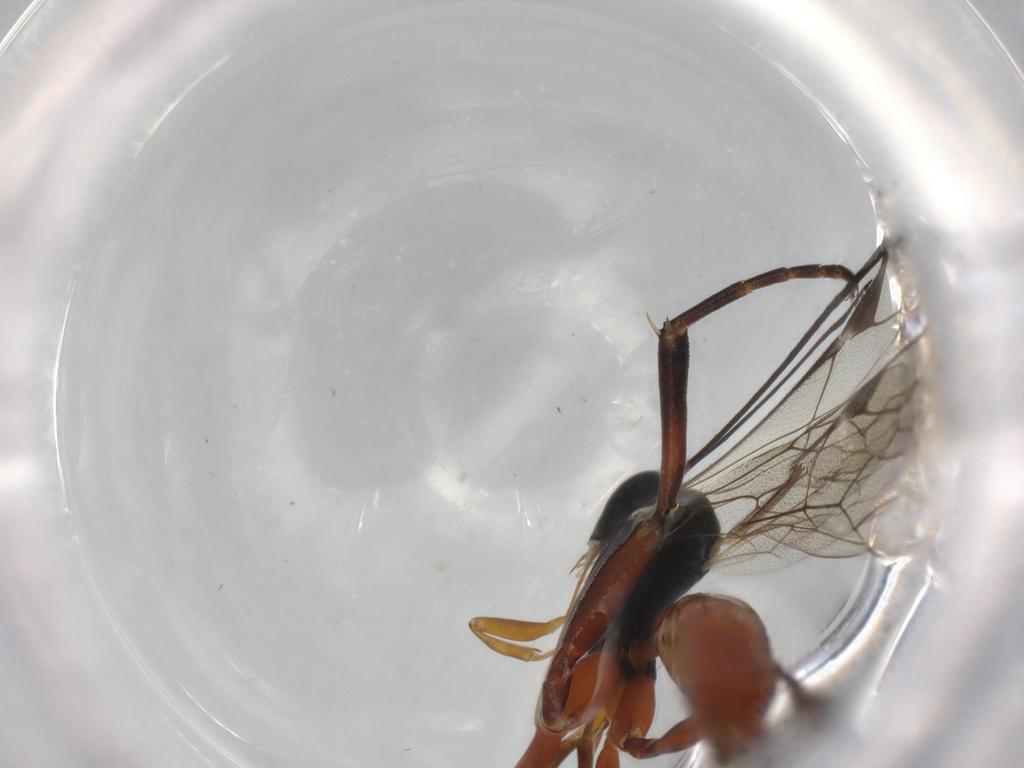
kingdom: Animalia
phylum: Arthropoda
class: Insecta
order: Hymenoptera
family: Ichneumonidae
